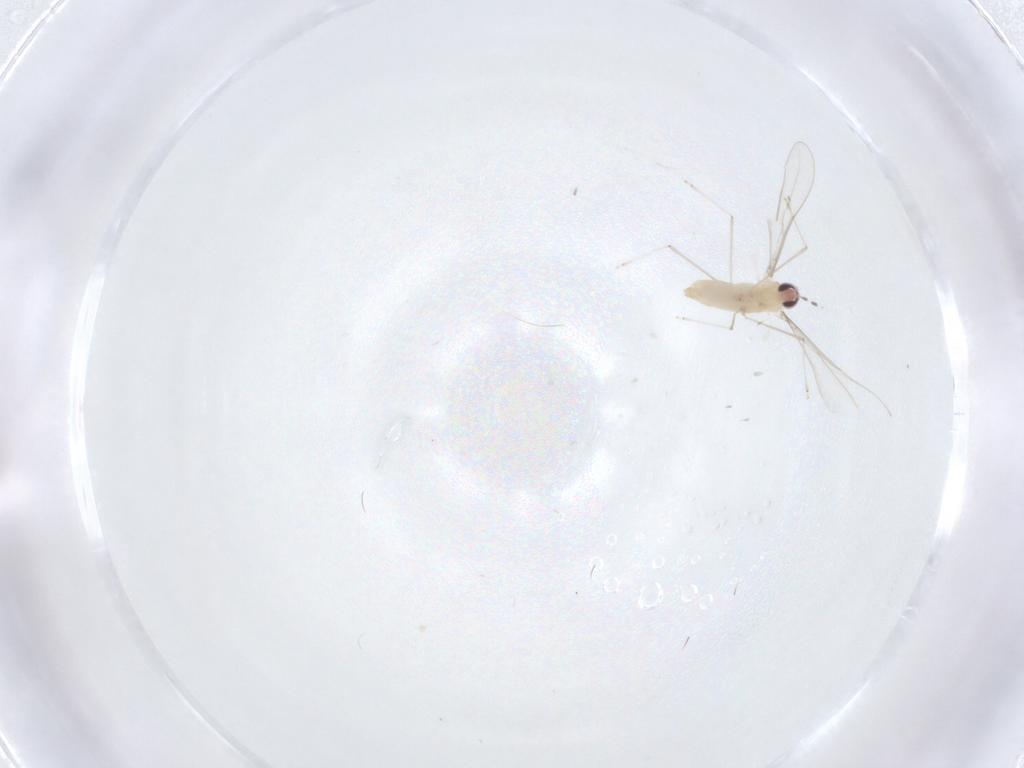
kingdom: Animalia
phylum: Arthropoda
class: Insecta
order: Diptera
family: Cecidomyiidae
